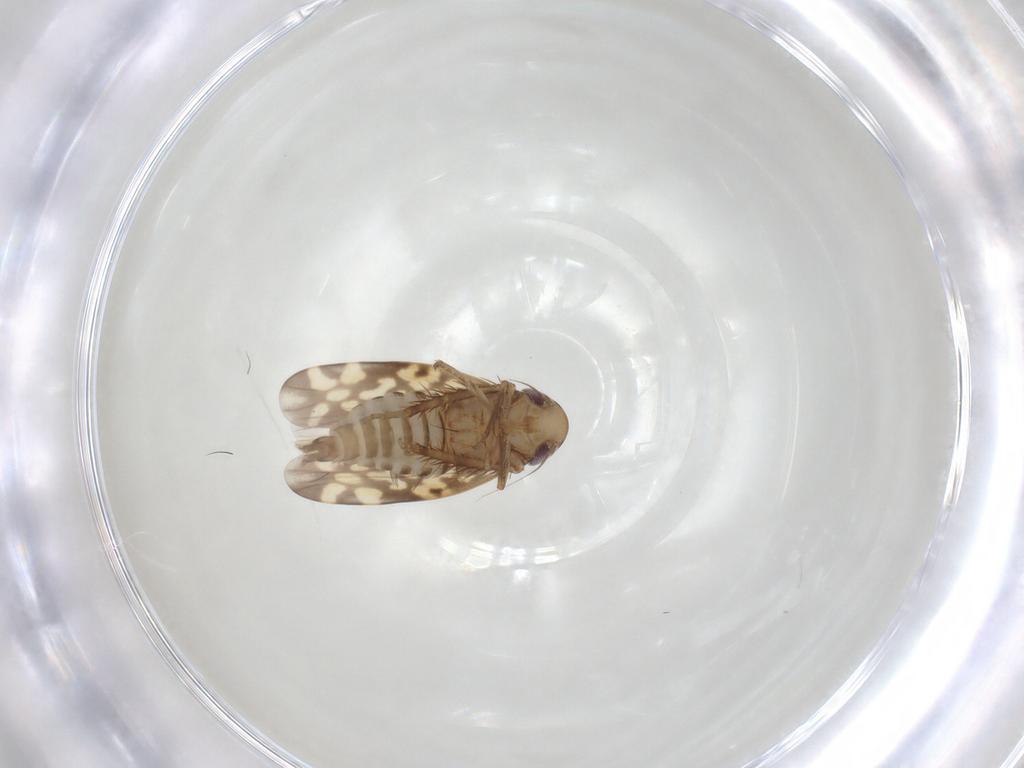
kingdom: Animalia
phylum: Arthropoda
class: Insecta
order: Hemiptera
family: Cicadellidae
